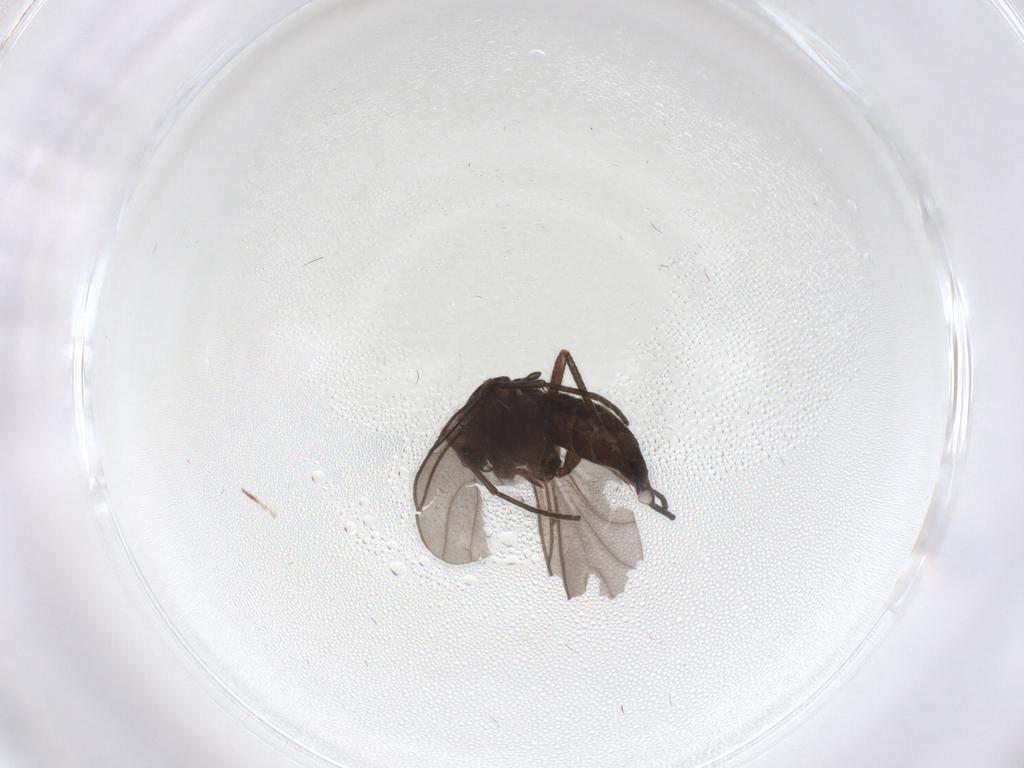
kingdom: Animalia
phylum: Arthropoda
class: Insecta
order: Diptera
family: Sciaridae
